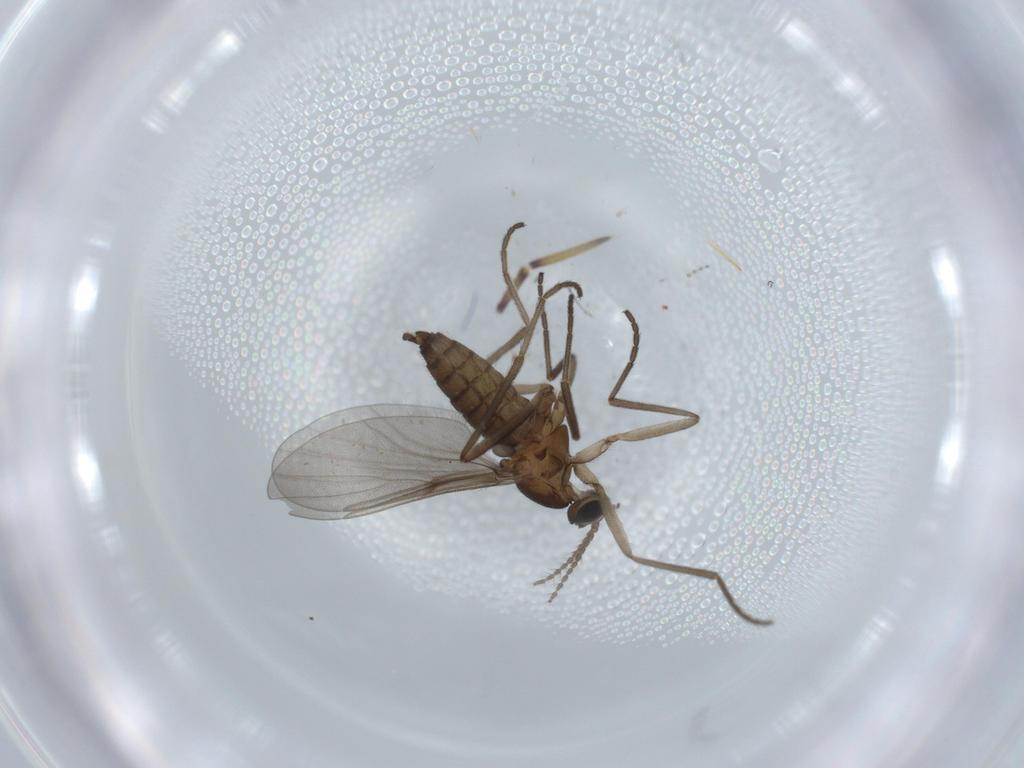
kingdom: Animalia
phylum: Arthropoda
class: Insecta
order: Diptera
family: Cecidomyiidae
